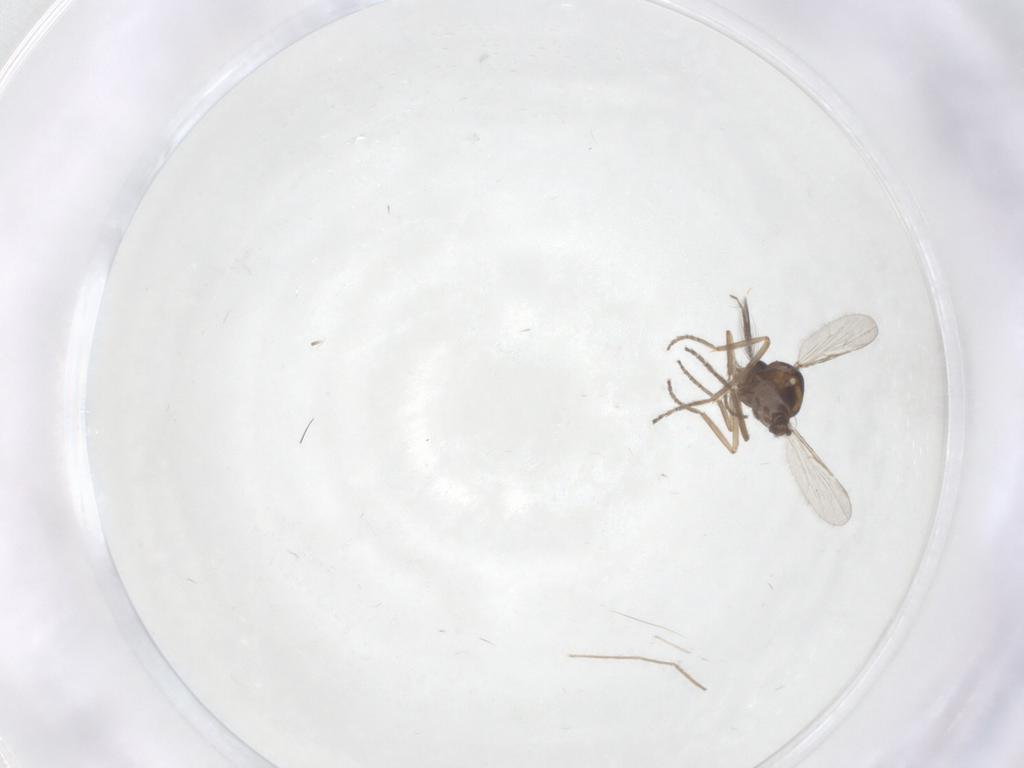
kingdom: Animalia
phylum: Arthropoda
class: Insecta
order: Diptera
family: Chironomidae
